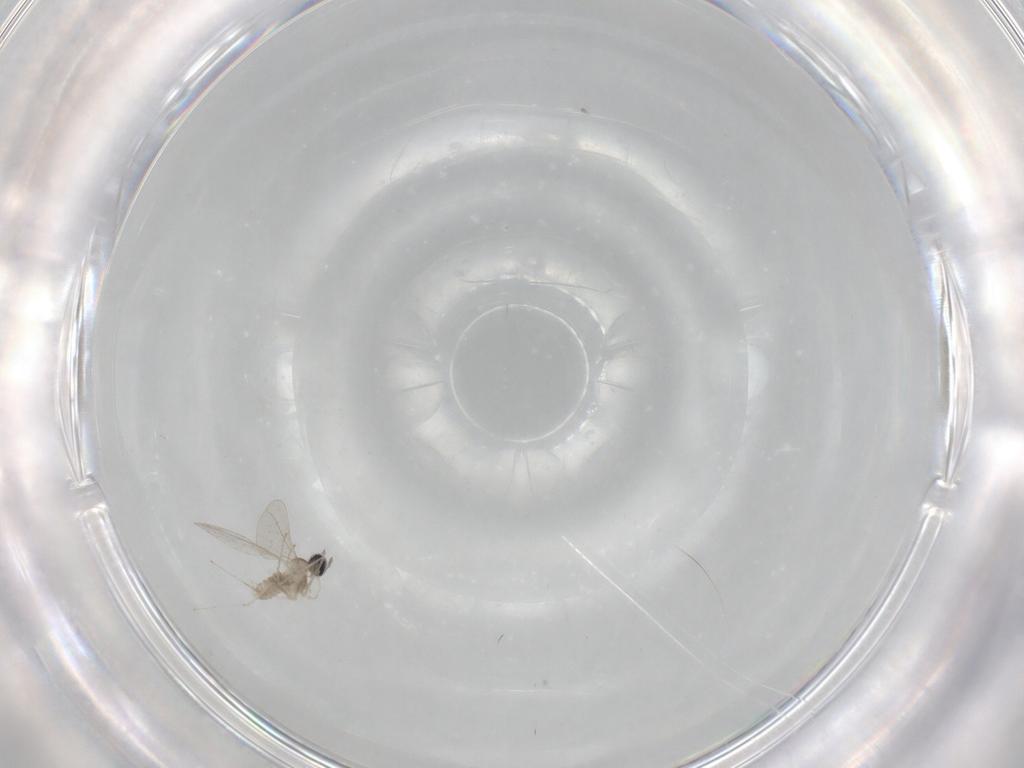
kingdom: Animalia
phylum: Arthropoda
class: Insecta
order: Diptera
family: Cecidomyiidae
